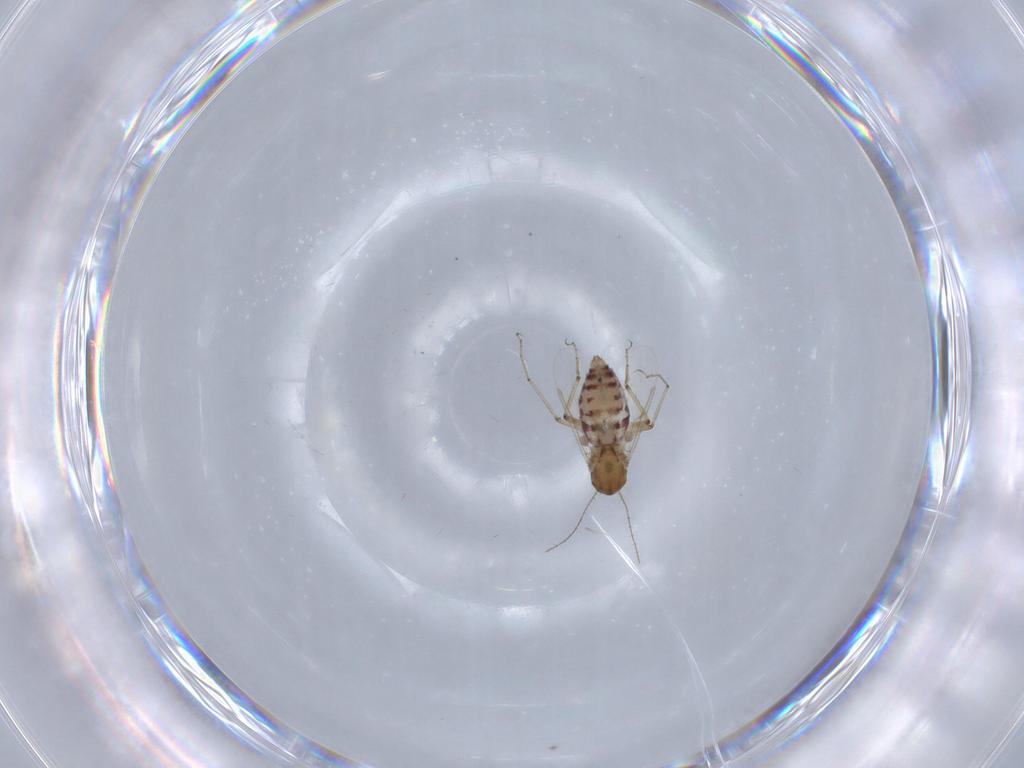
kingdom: Animalia
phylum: Arthropoda
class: Insecta
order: Diptera
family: Ceratopogonidae
